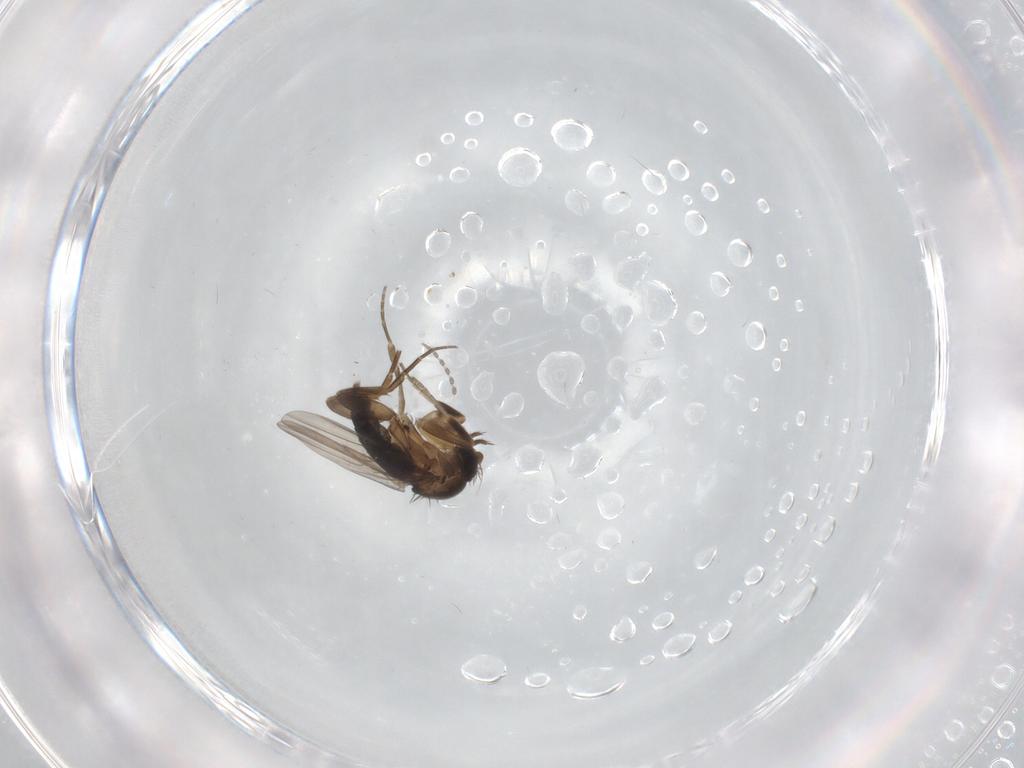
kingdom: Animalia
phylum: Arthropoda
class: Insecta
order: Diptera
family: Phoridae
